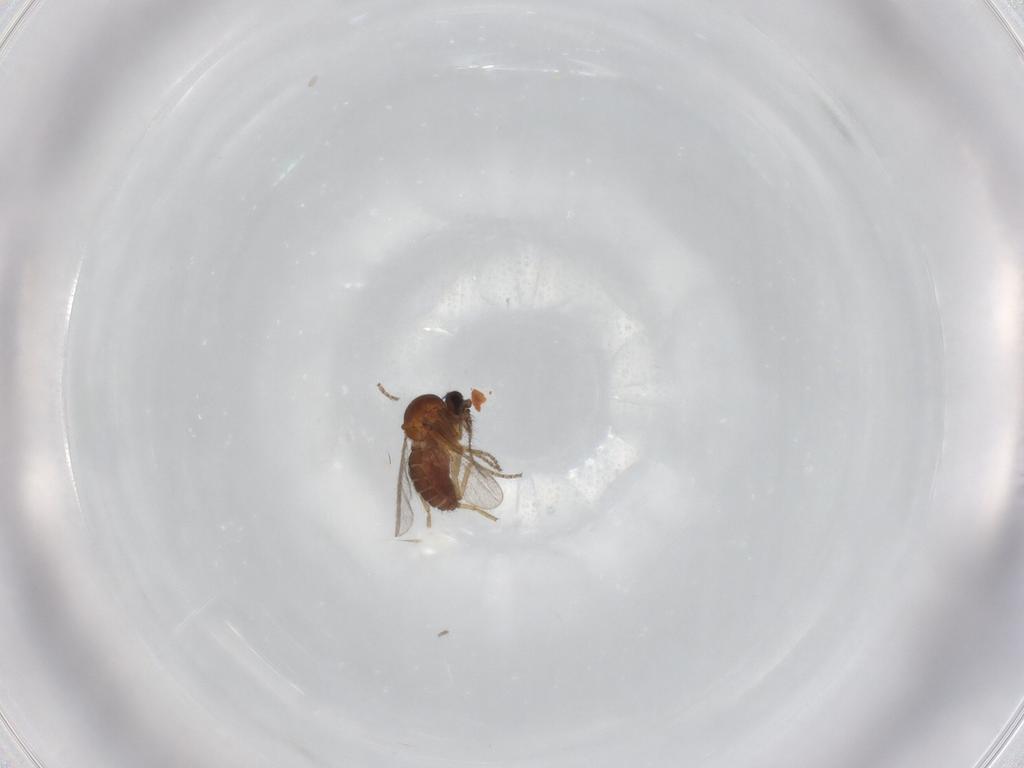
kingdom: Animalia
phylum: Arthropoda
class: Insecta
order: Diptera
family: Ceratopogonidae
